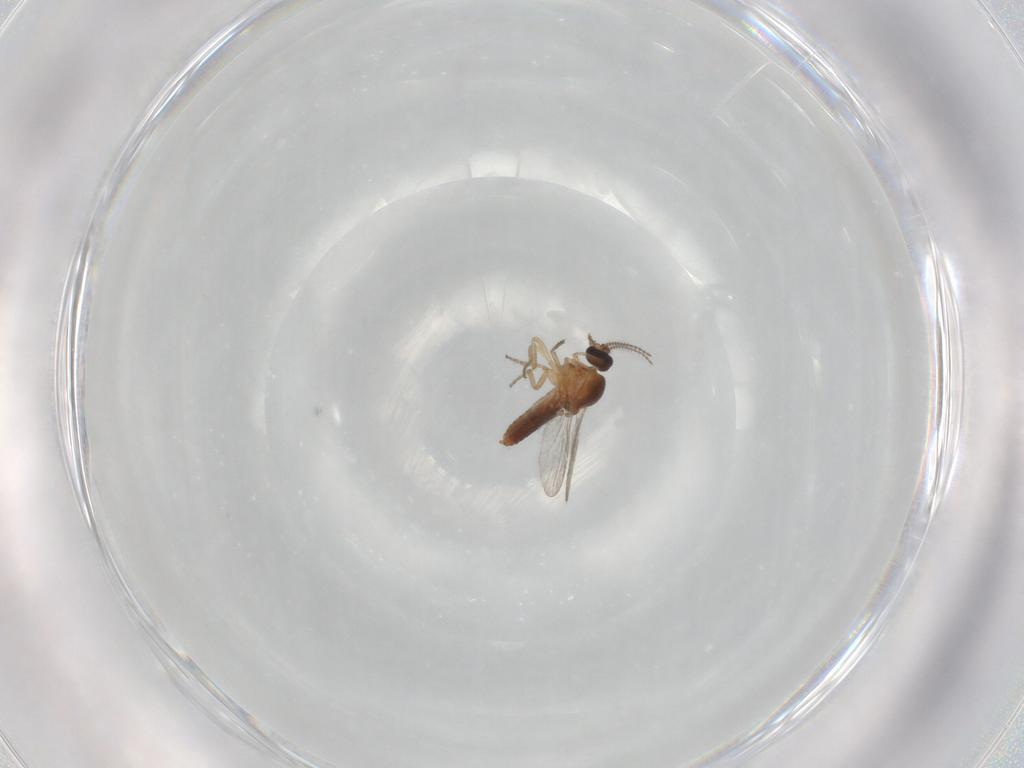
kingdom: Animalia
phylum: Arthropoda
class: Insecta
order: Diptera
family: Ceratopogonidae
